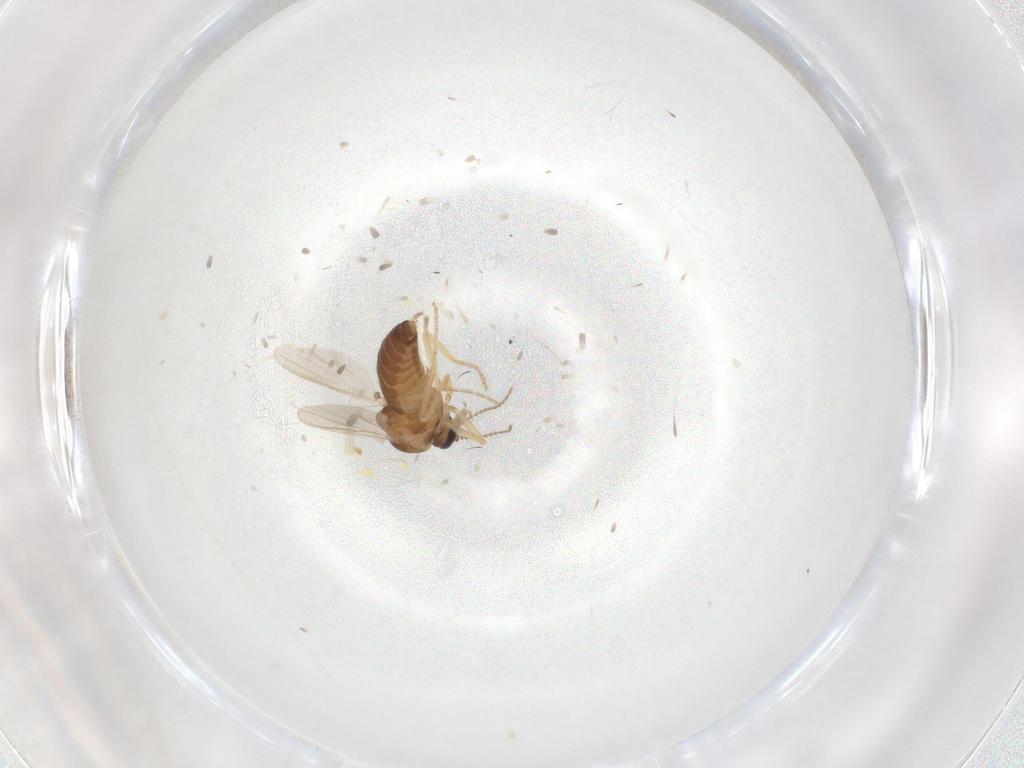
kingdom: Animalia
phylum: Arthropoda
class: Insecta
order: Diptera
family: Ceratopogonidae
